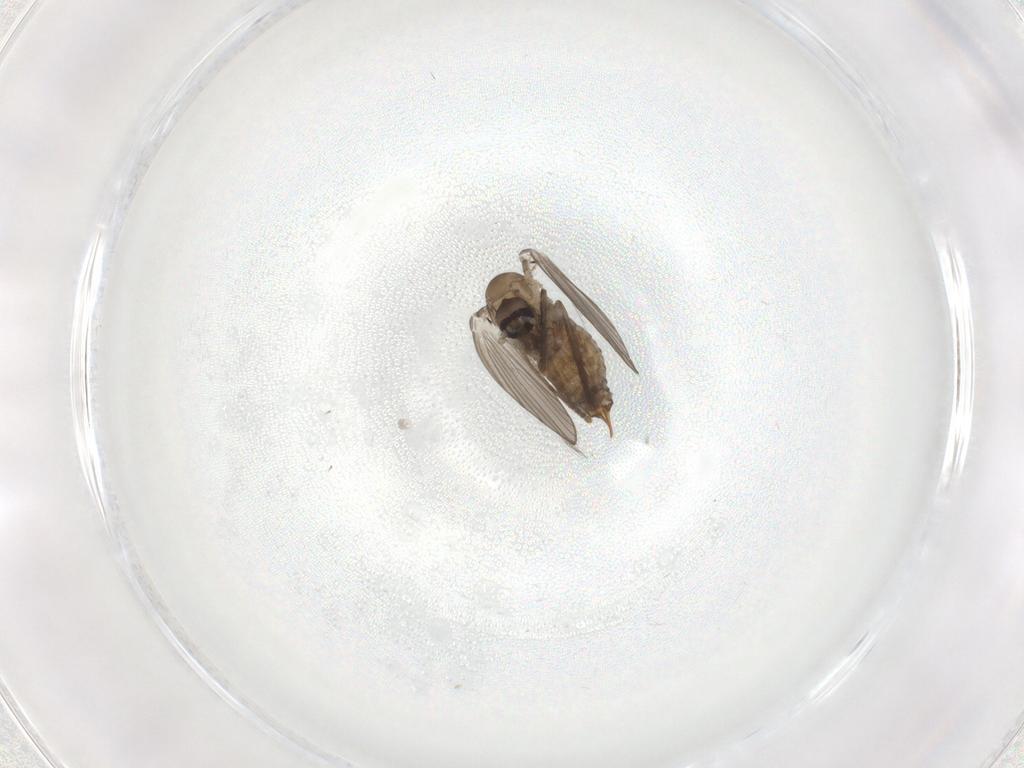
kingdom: Animalia
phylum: Arthropoda
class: Insecta
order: Diptera
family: Psychodidae
